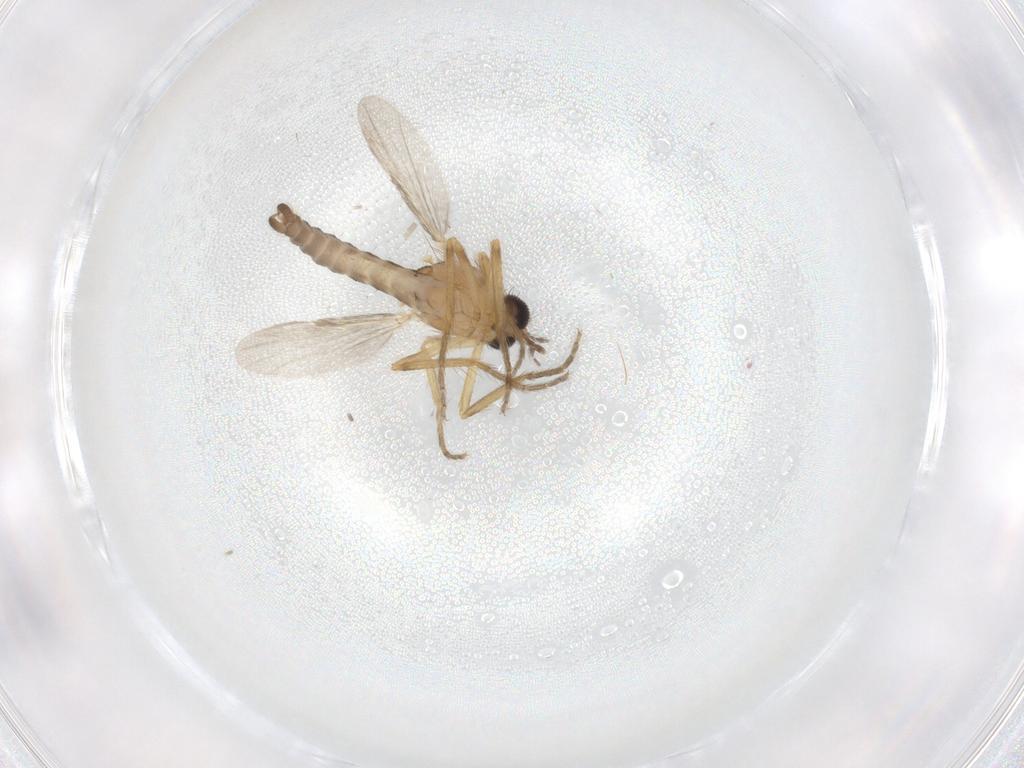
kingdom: Animalia
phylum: Arthropoda
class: Insecta
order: Diptera
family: Ceratopogonidae
